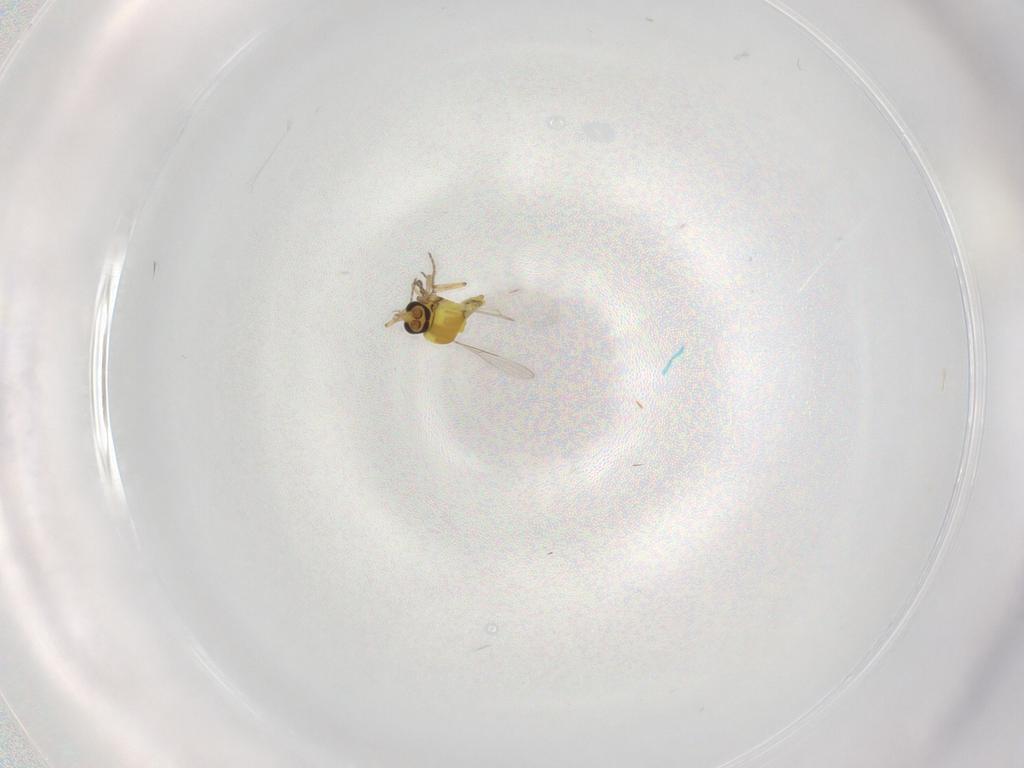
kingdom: Animalia
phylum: Arthropoda
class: Insecta
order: Diptera
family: Ceratopogonidae
